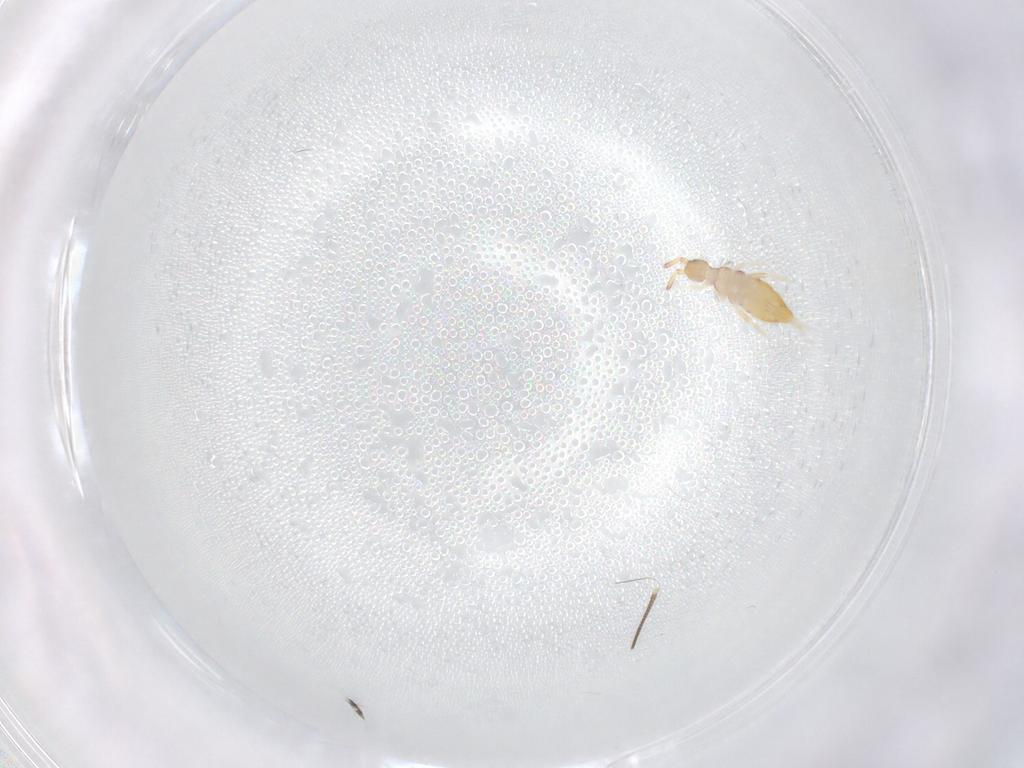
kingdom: Animalia
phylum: Arthropoda
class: Collembola
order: Entomobryomorpha
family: Entomobryidae
